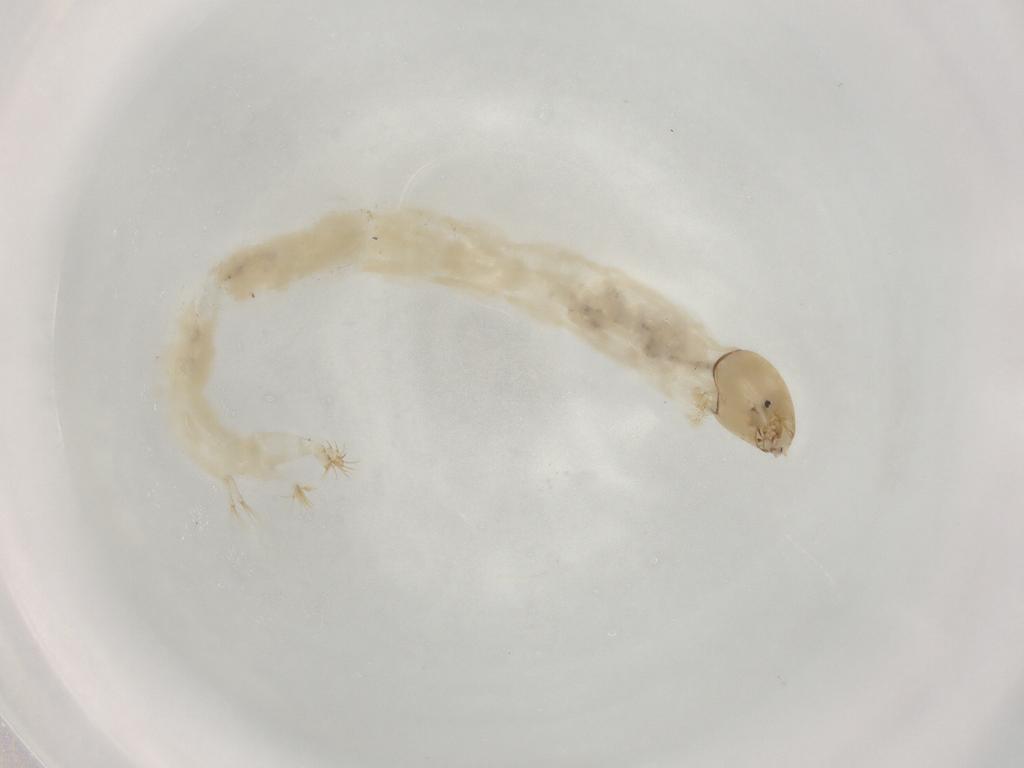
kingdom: Animalia
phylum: Arthropoda
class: Insecta
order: Diptera
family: Chironomidae
